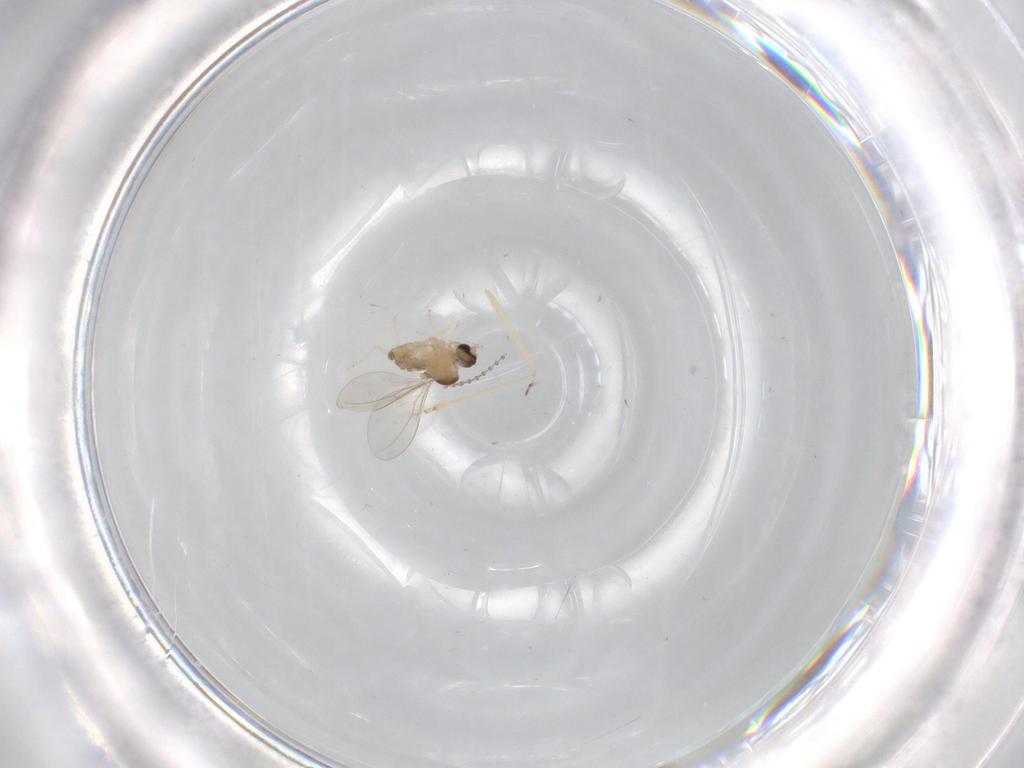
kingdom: Animalia
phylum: Arthropoda
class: Insecta
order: Diptera
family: Cecidomyiidae
